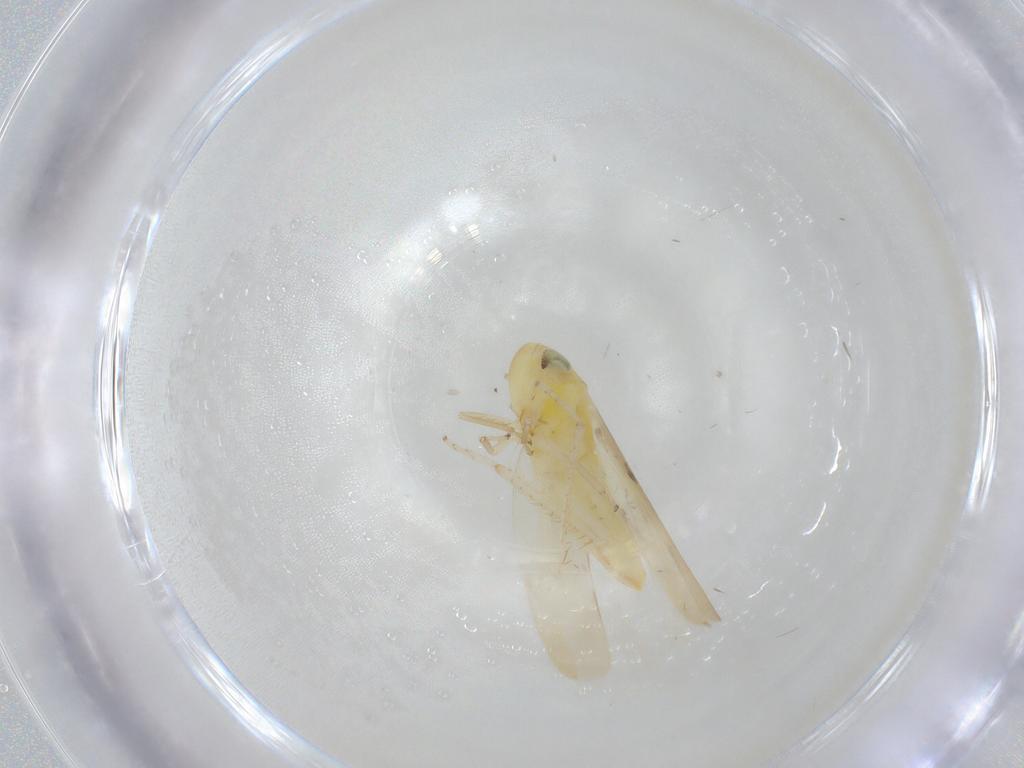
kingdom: Animalia
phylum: Arthropoda
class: Insecta
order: Hemiptera
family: Cicadellidae
